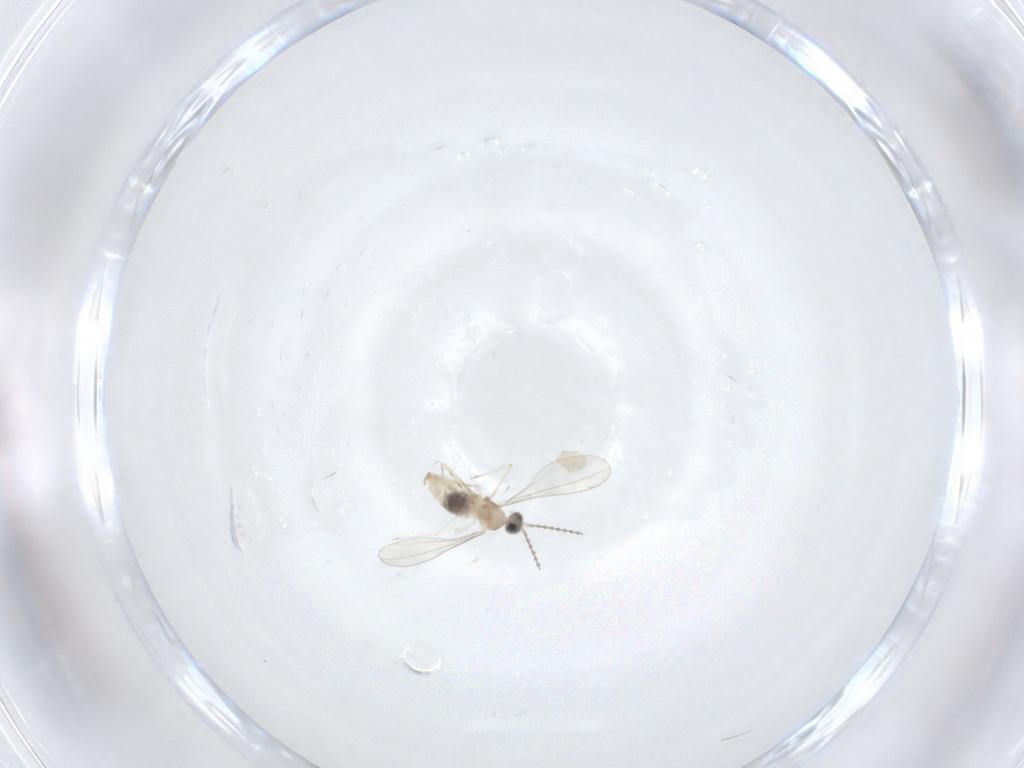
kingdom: Animalia
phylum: Arthropoda
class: Insecta
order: Diptera
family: Cecidomyiidae
